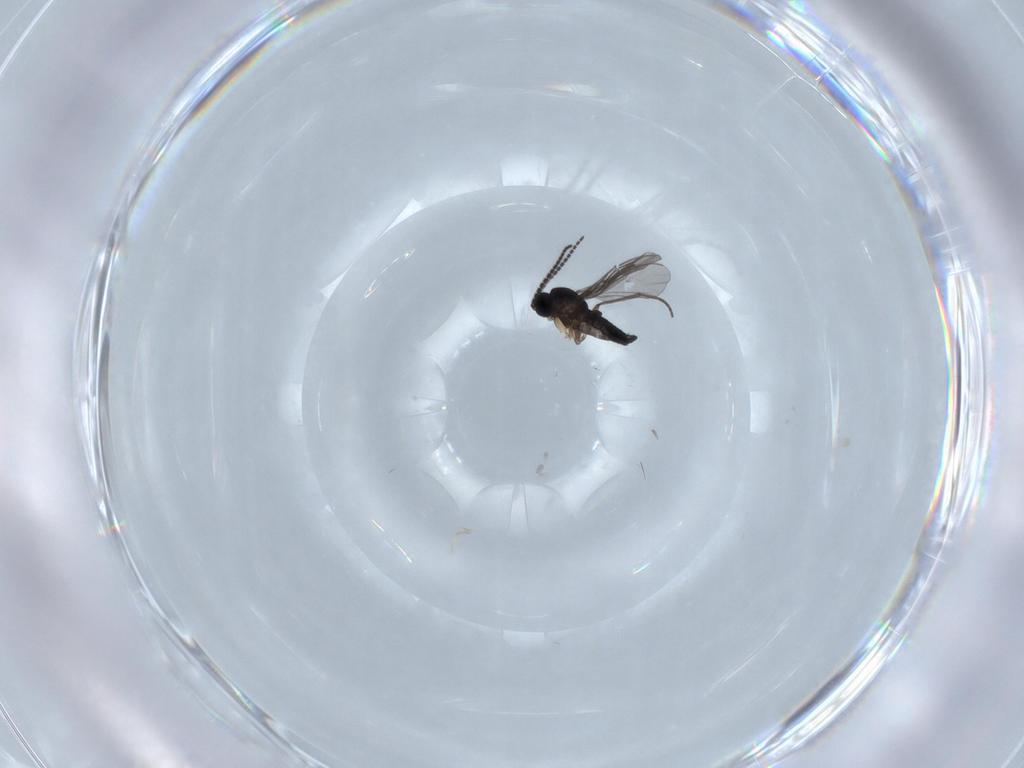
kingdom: Animalia
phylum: Arthropoda
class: Insecta
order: Diptera
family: Sciaridae
